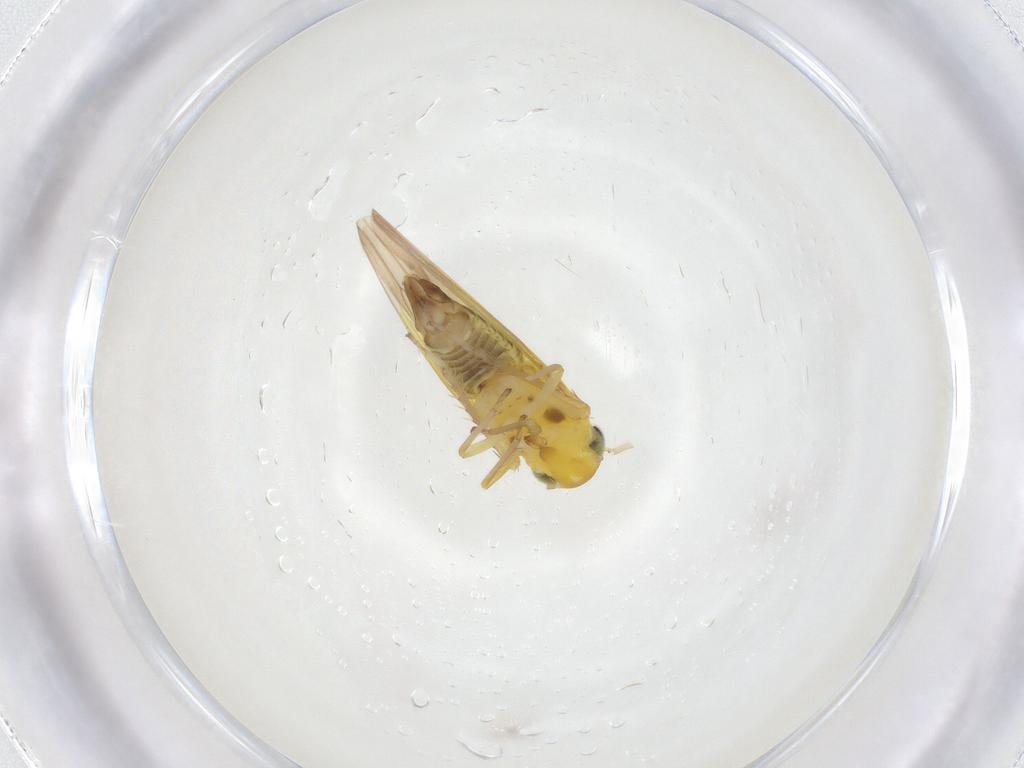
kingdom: Animalia
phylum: Arthropoda
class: Insecta
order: Hemiptera
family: Cicadellidae
